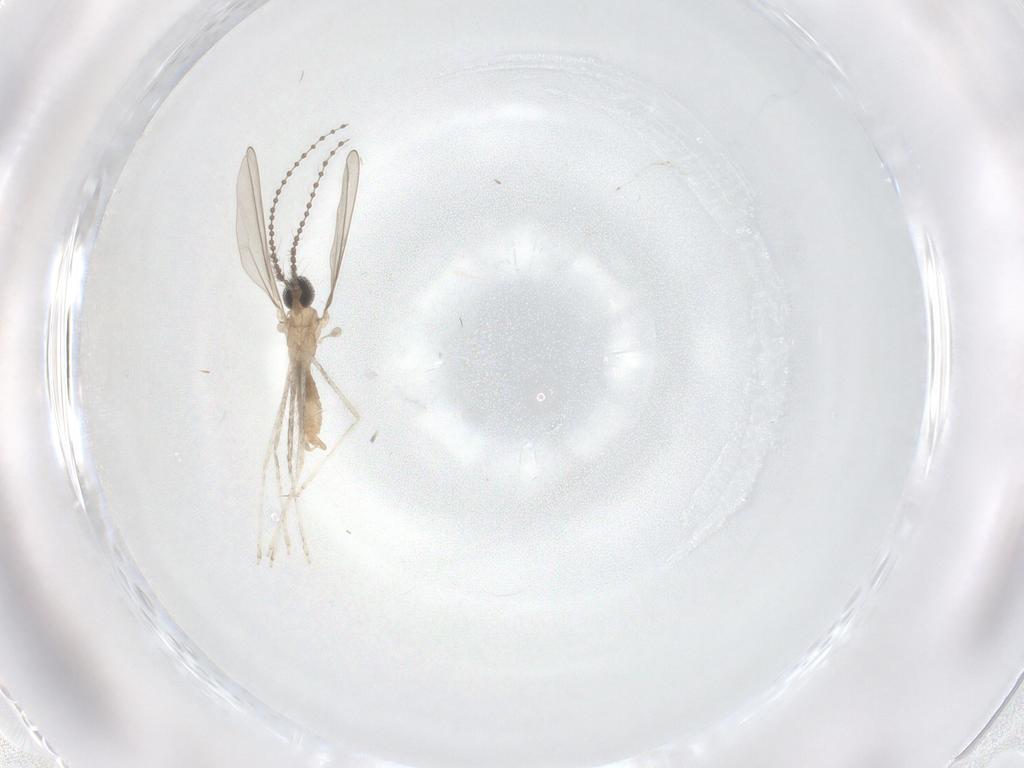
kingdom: Animalia
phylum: Arthropoda
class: Insecta
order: Diptera
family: Cecidomyiidae
